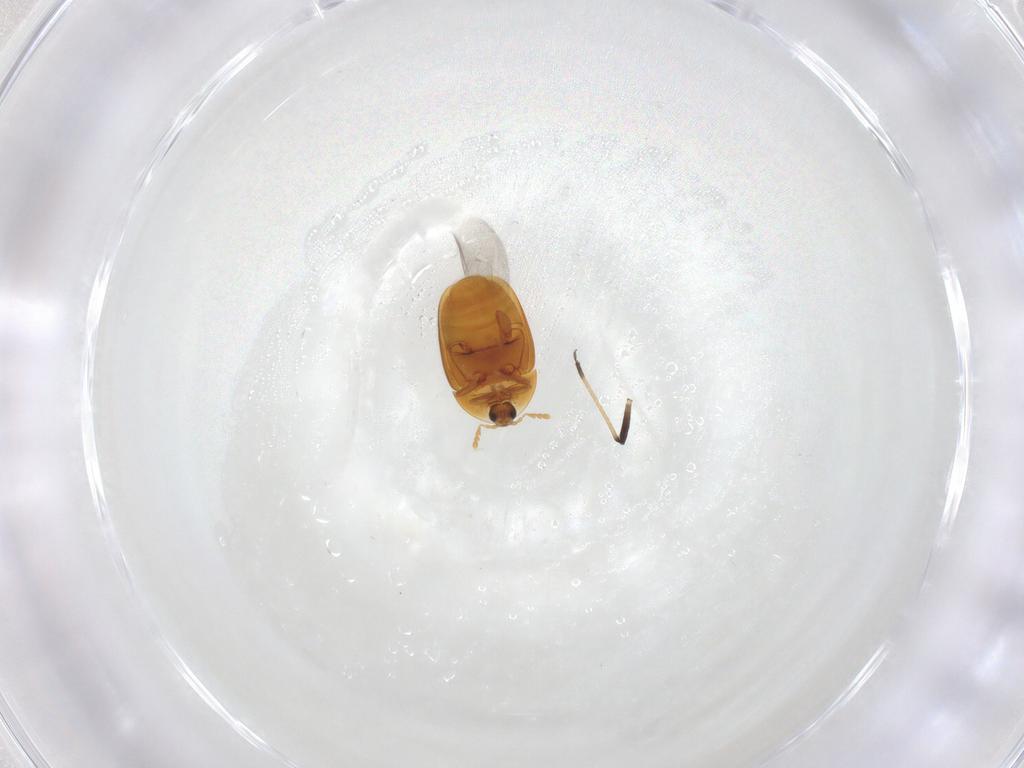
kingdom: Animalia
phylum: Arthropoda
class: Insecta
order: Coleoptera
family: Corylophidae
